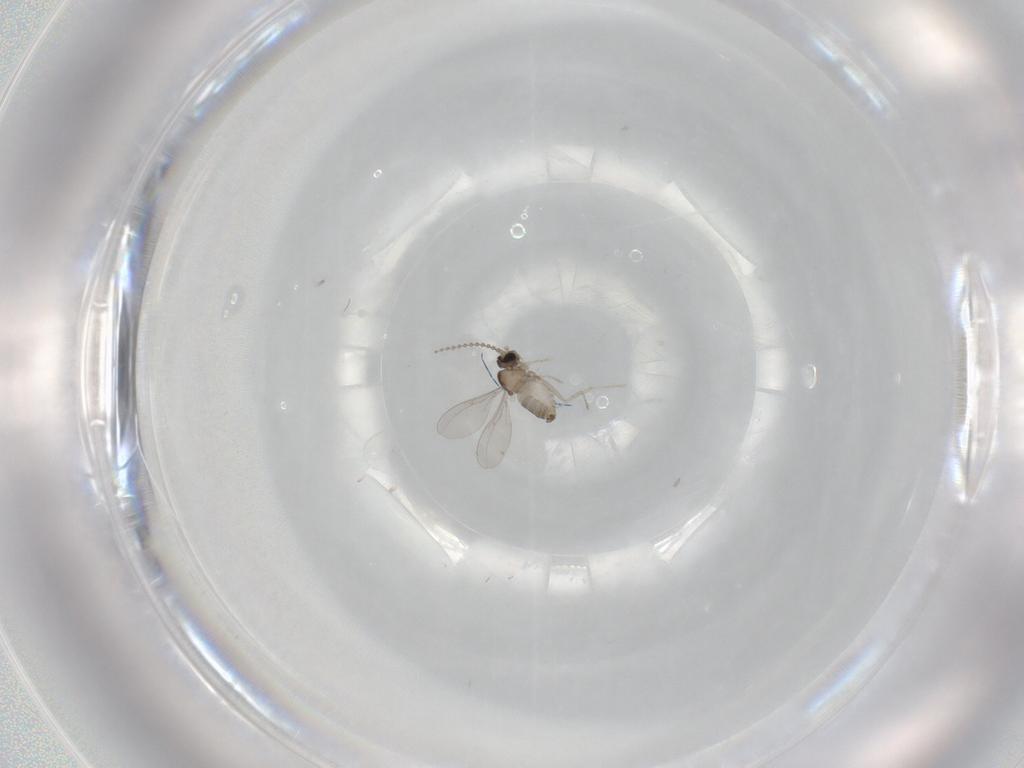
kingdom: Animalia
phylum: Arthropoda
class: Insecta
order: Diptera
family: Cecidomyiidae
